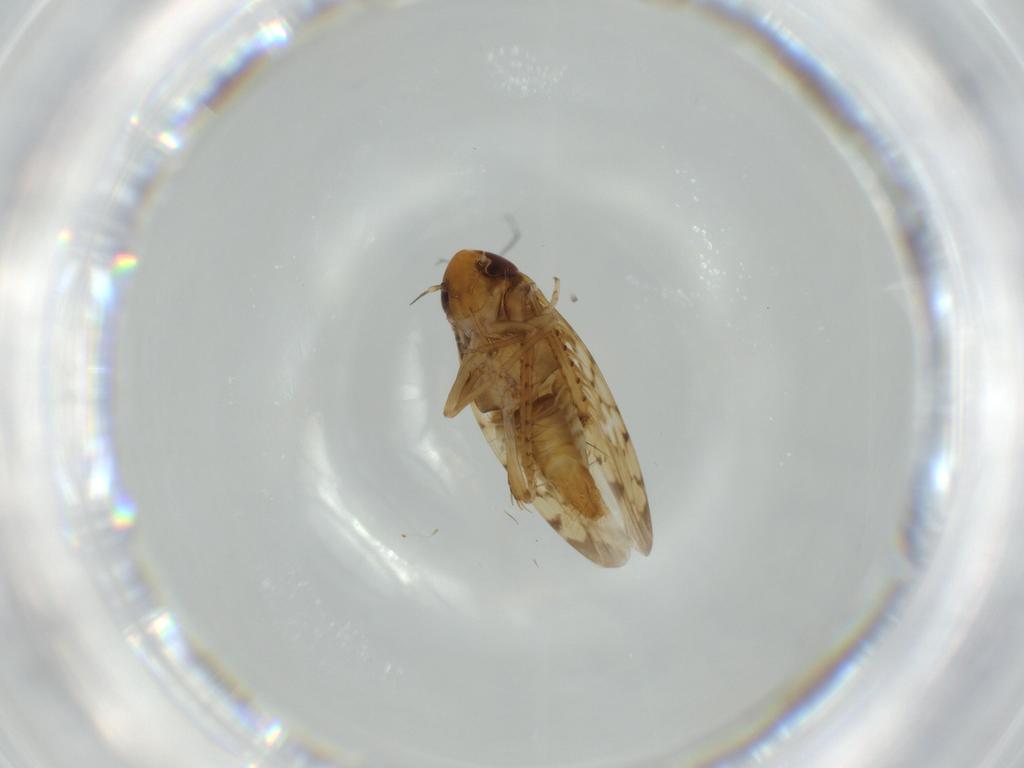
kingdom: Animalia
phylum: Arthropoda
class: Insecta
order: Hemiptera
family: Cicadellidae
